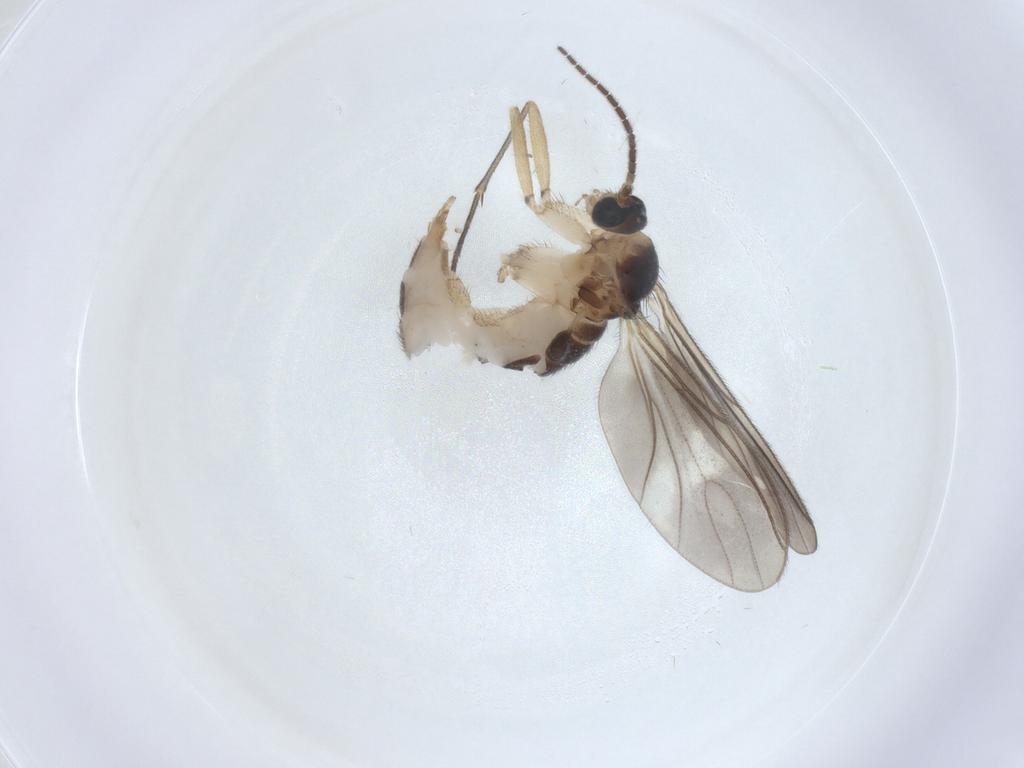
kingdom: Animalia
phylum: Arthropoda
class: Insecta
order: Diptera
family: Sciaridae
